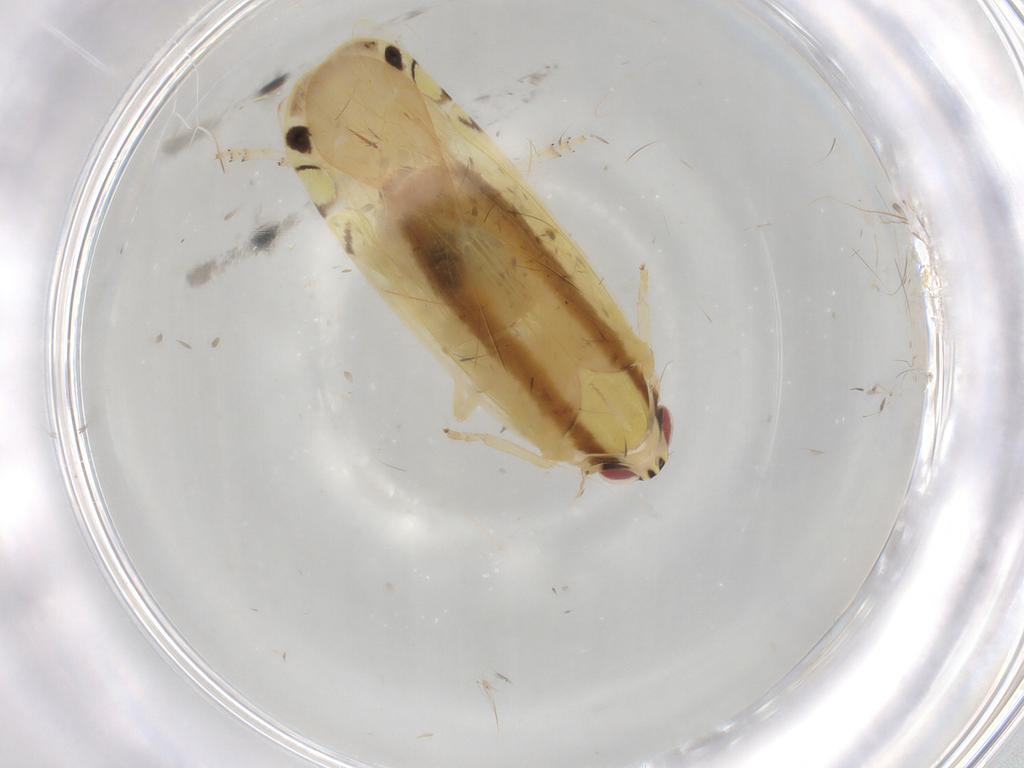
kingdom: Animalia
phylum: Arthropoda
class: Insecta
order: Hemiptera
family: Achilidae
